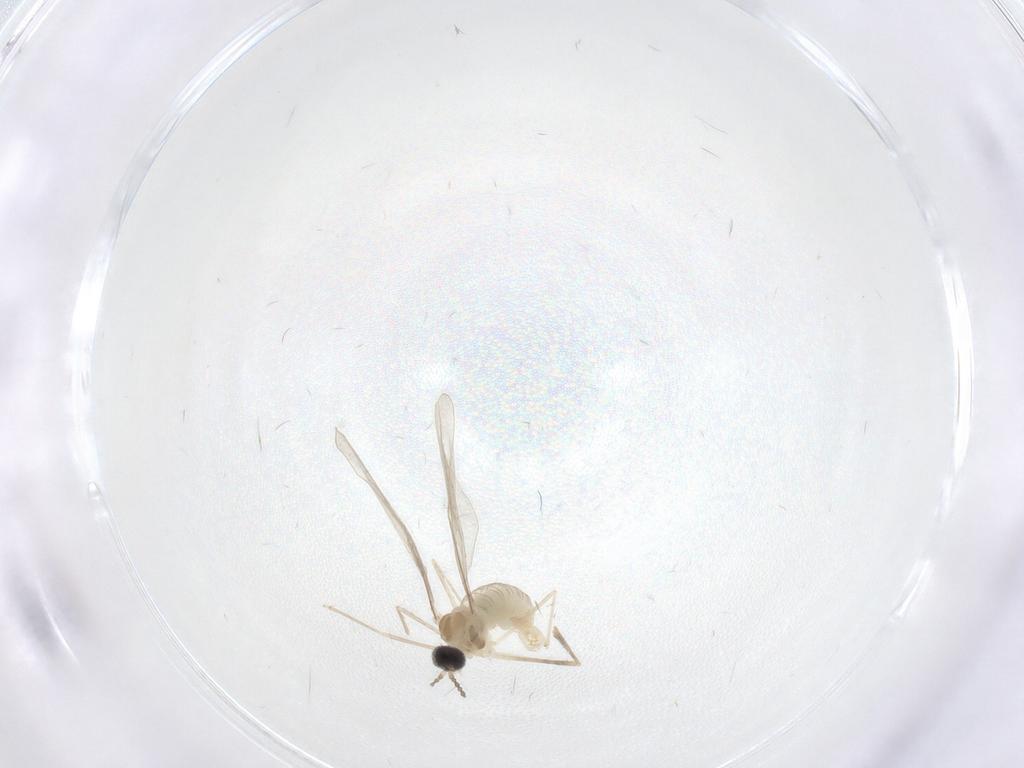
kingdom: Animalia
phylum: Arthropoda
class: Insecta
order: Diptera
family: Cecidomyiidae
